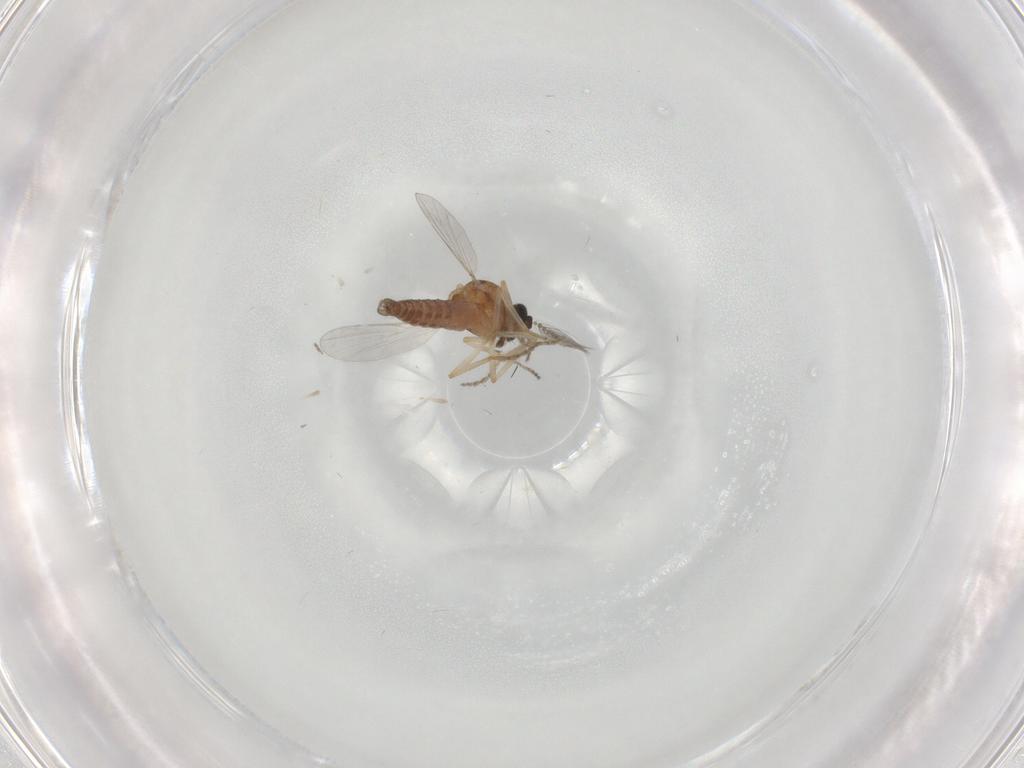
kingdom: Animalia
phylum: Arthropoda
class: Insecta
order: Diptera
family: Ceratopogonidae
